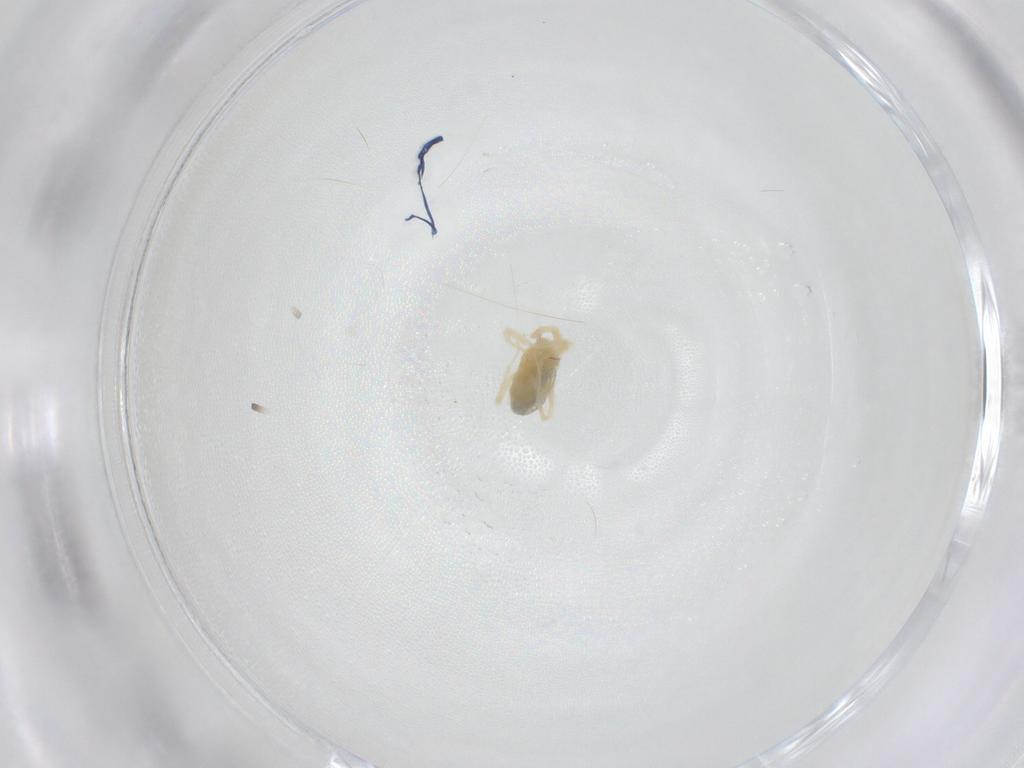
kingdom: Animalia
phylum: Arthropoda
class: Arachnida
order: Trombidiformes
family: Anystidae
